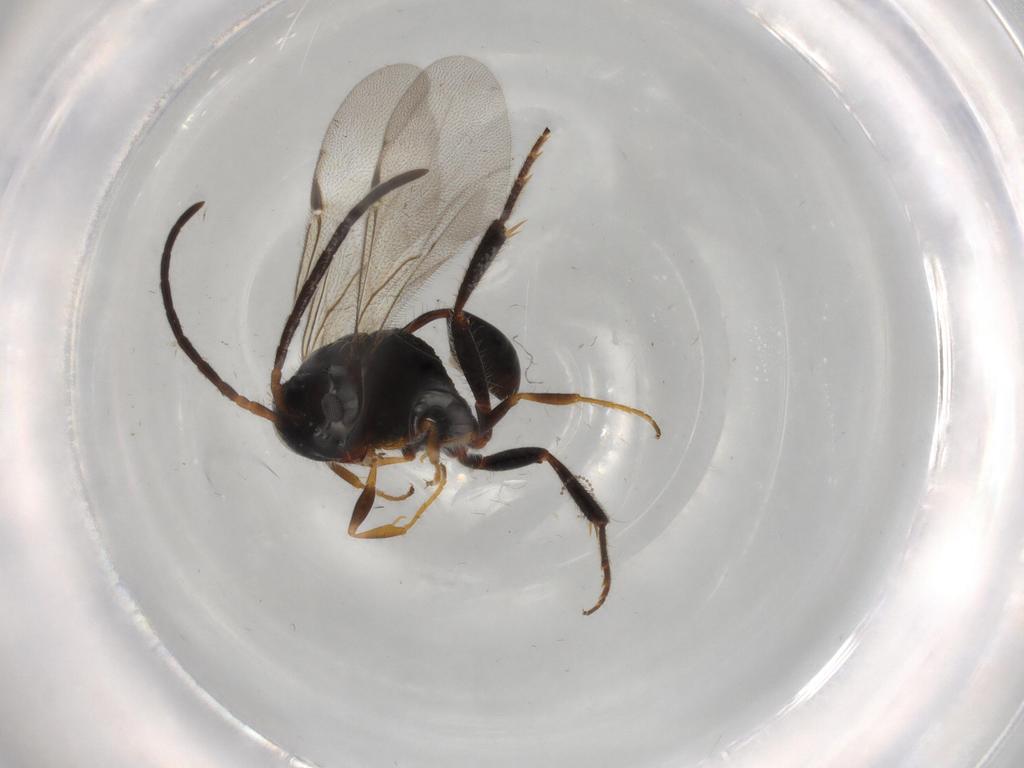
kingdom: Animalia
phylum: Arthropoda
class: Insecta
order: Hymenoptera
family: Evaniidae
